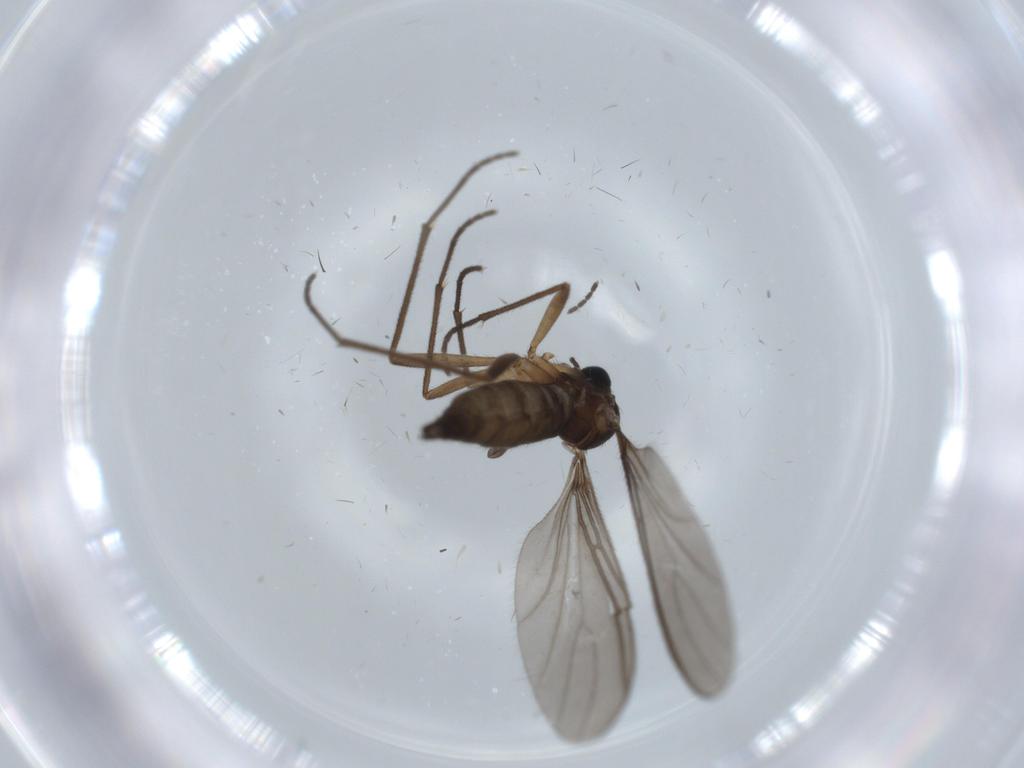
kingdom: Animalia
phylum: Arthropoda
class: Insecta
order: Diptera
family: Sciaridae
